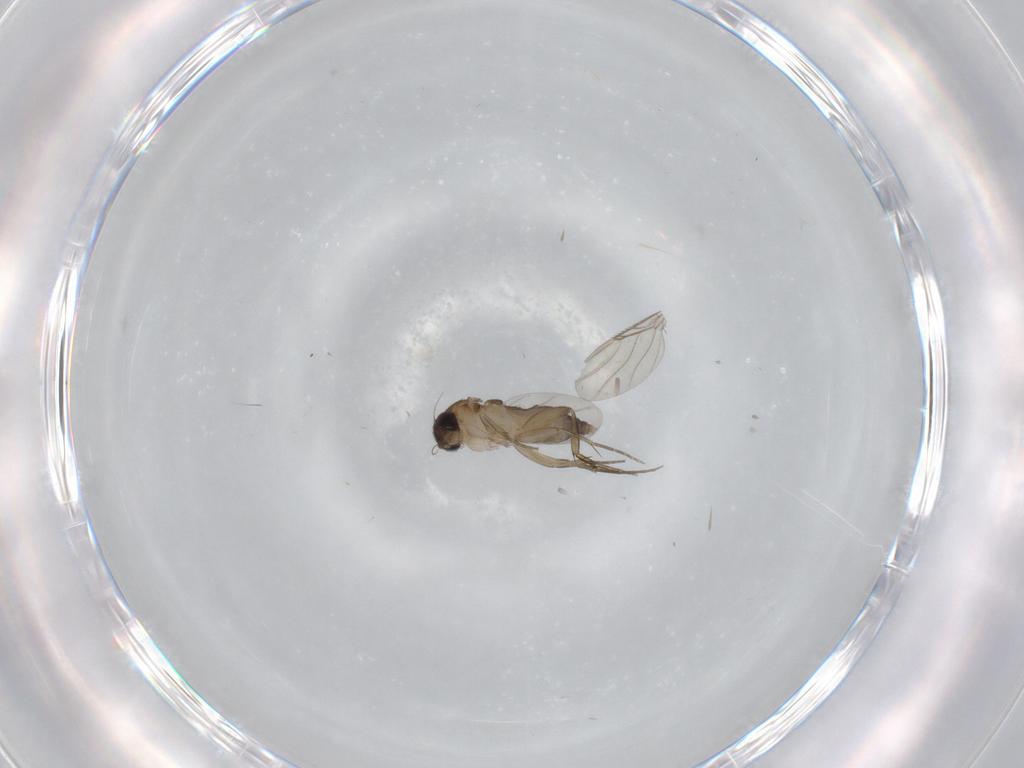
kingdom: Animalia
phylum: Arthropoda
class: Insecta
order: Diptera
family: Phoridae
